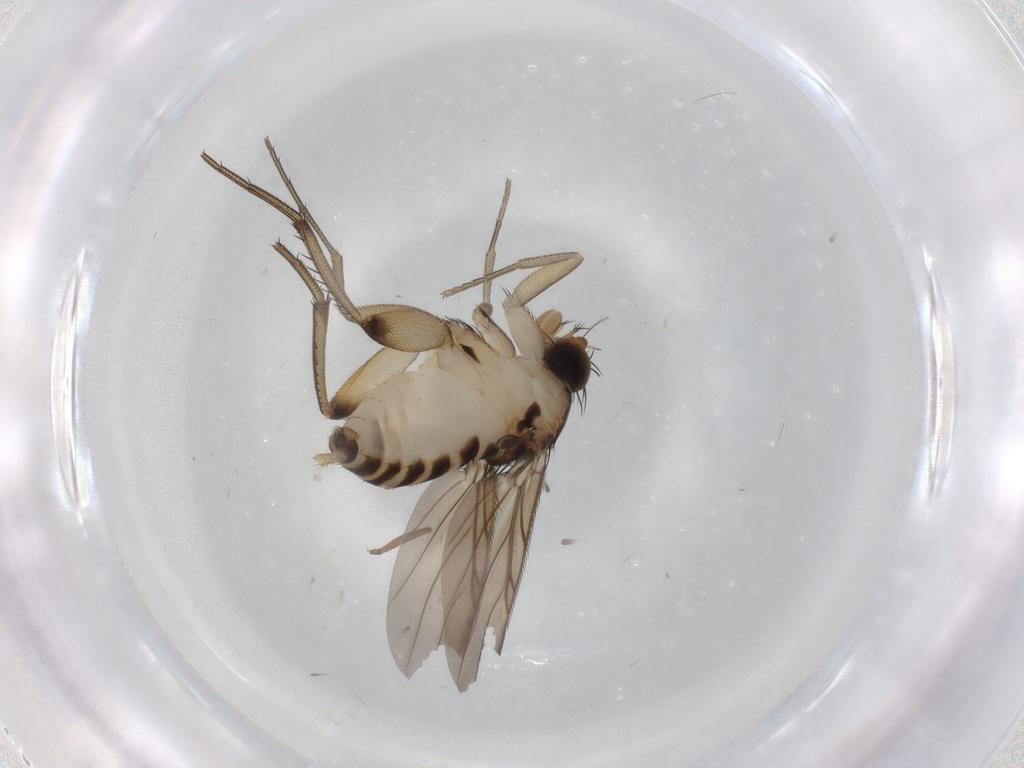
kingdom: Animalia
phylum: Arthropoda
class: Insecta
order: Diptera
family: Phoridae
